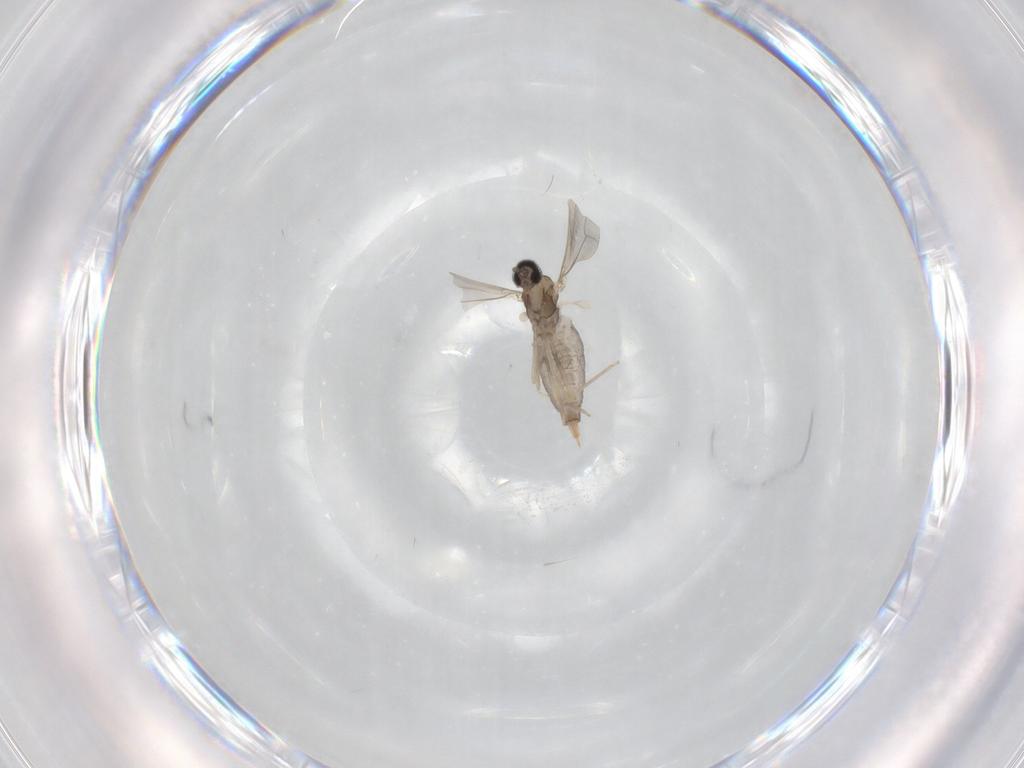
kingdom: Animalia
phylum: Arthropoda
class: Insecta
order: Diptera
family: Cecidomyiidae
